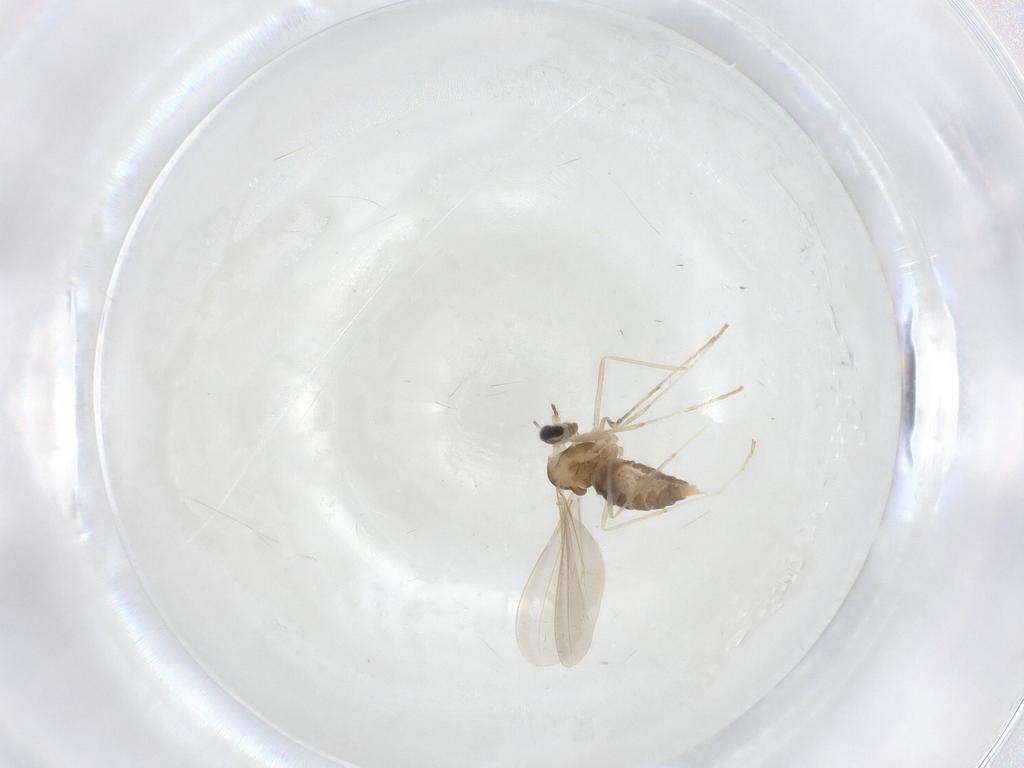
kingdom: Animalia
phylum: Arthropoda
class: Insecta
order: Diptera
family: Cecidomyiidae
